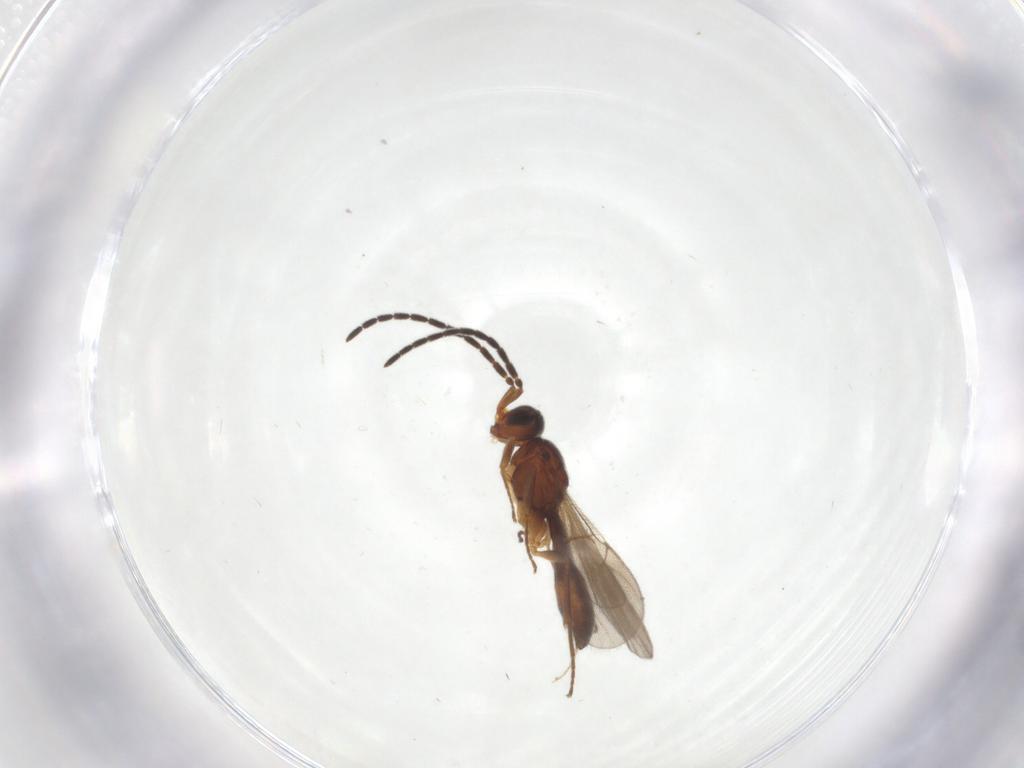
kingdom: Animalia
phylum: Arthropoda
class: Insecta
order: Hymenoptera
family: Scelionidae
